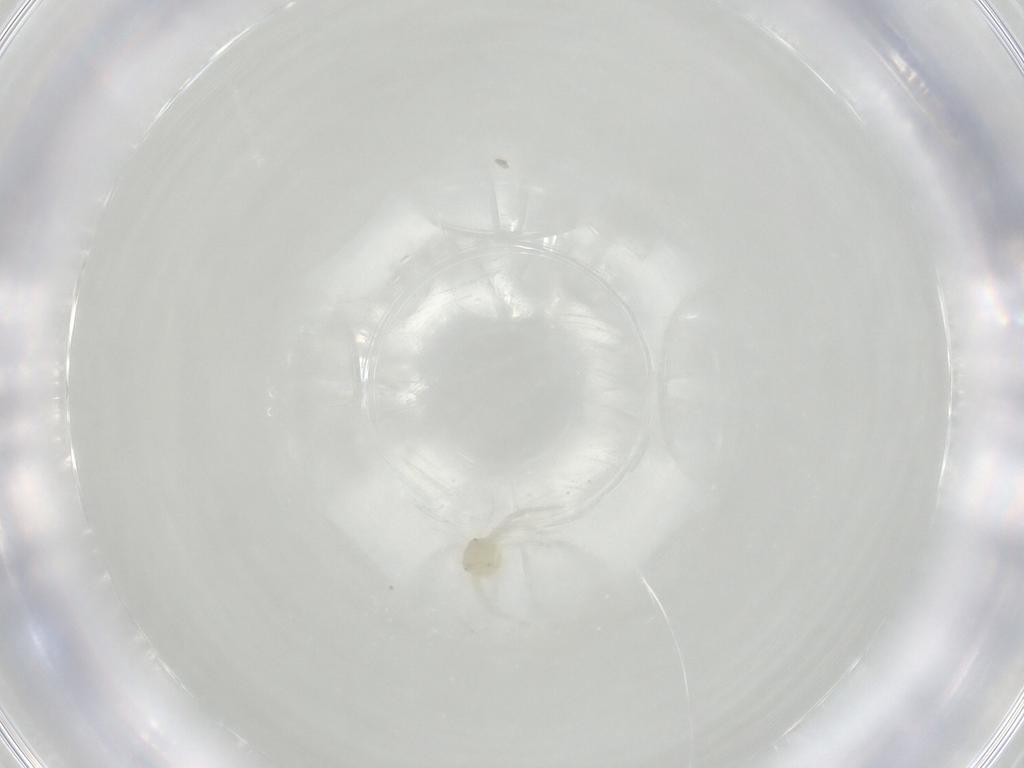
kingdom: Animalia
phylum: Arthropoda
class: Arachnida
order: Trombidiformes
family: Anystidae
